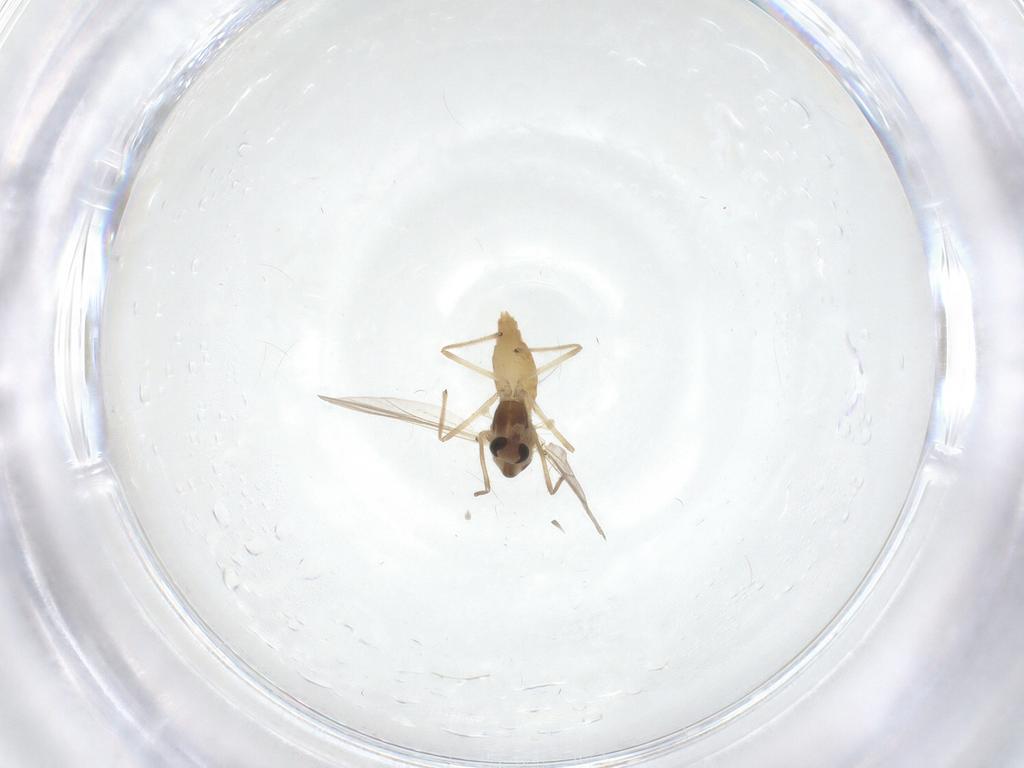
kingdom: Animalia
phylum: Arthropoda
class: Insecta
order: Diptera
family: Chironomidae
